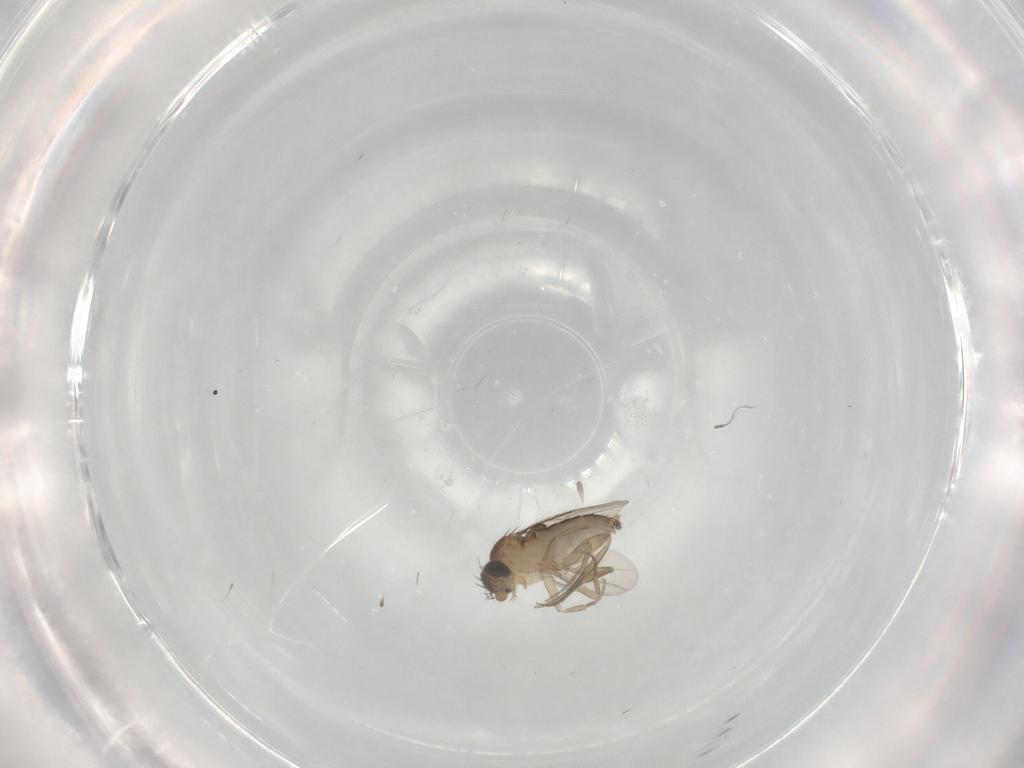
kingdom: Animalia
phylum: Arthropoda
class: Insecta
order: Diptera
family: Phoridae
